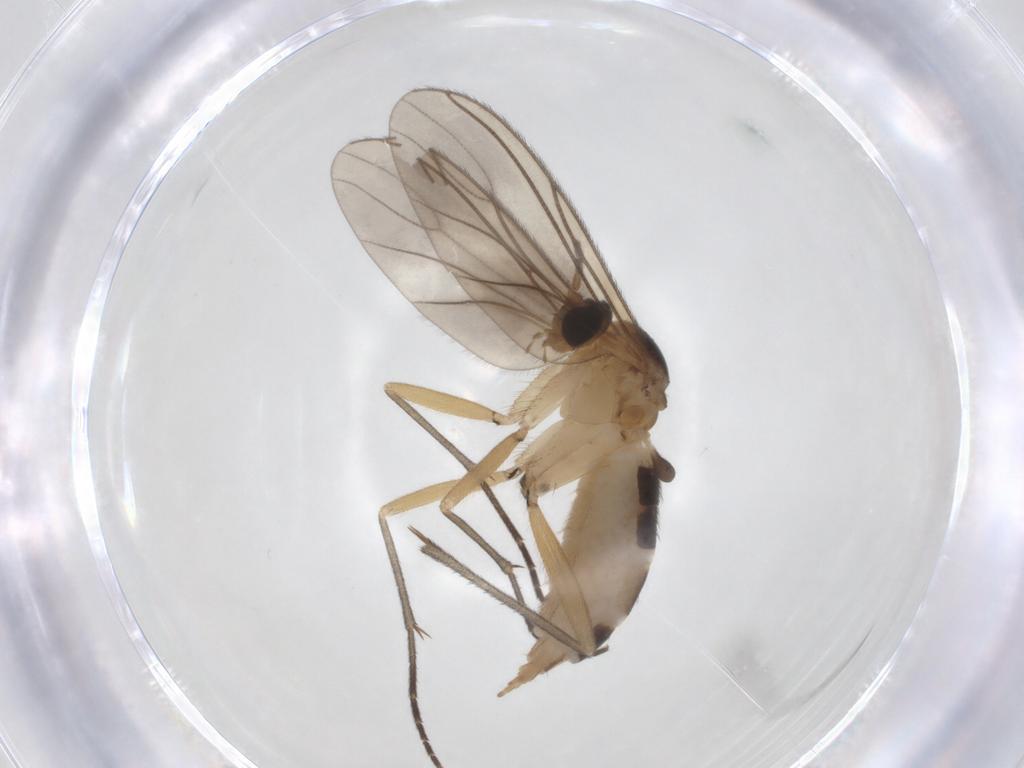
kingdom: Animalia
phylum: Arthropoda
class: Insecta
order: Diptera
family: Sciaridae
